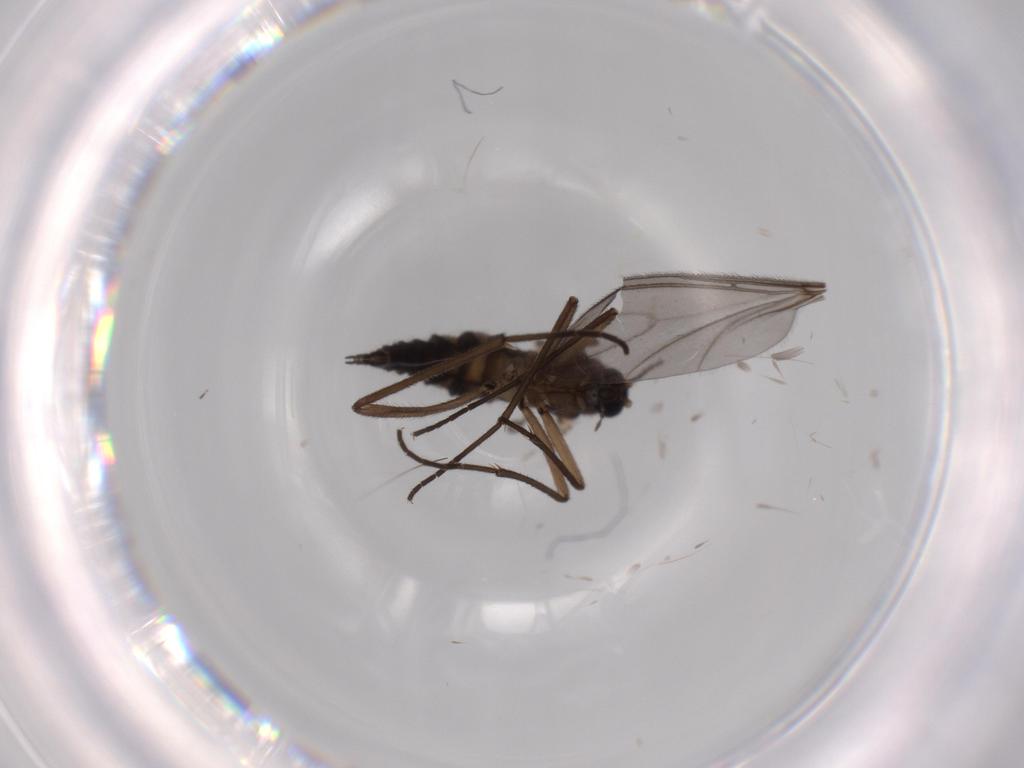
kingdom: Animalia
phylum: Arthropoda
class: Insecta
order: Diptera
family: Sciaridae
